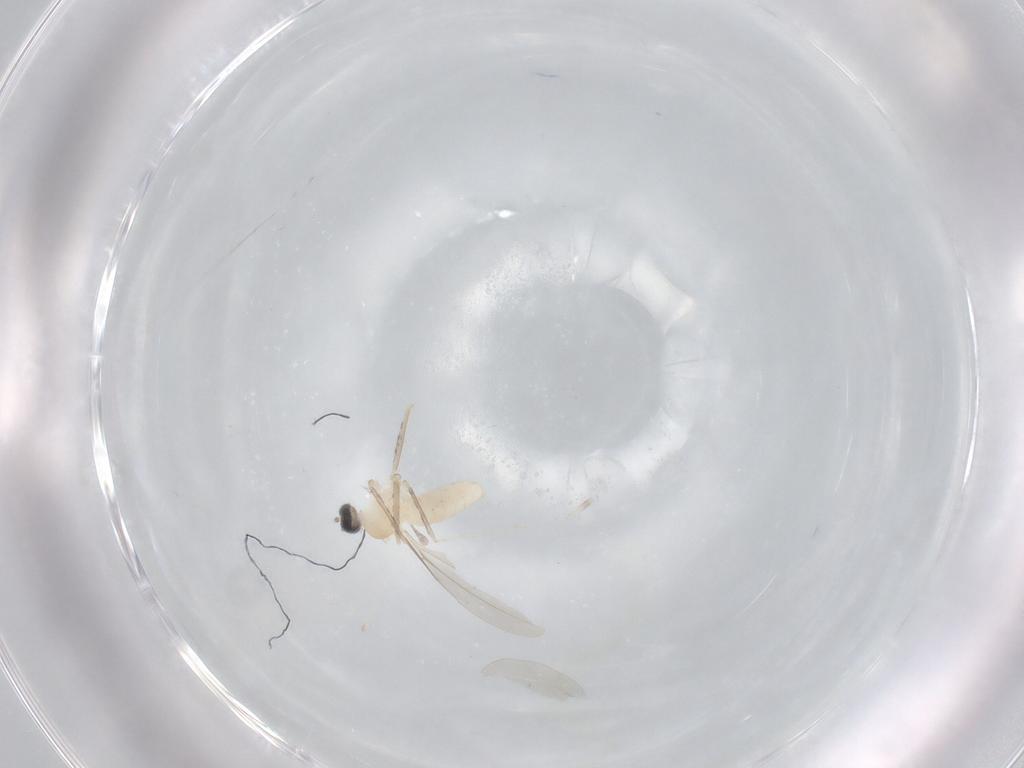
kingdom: Animalia
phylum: Arthropoda
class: Insecta
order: Diptera
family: Cecidomyiidae
